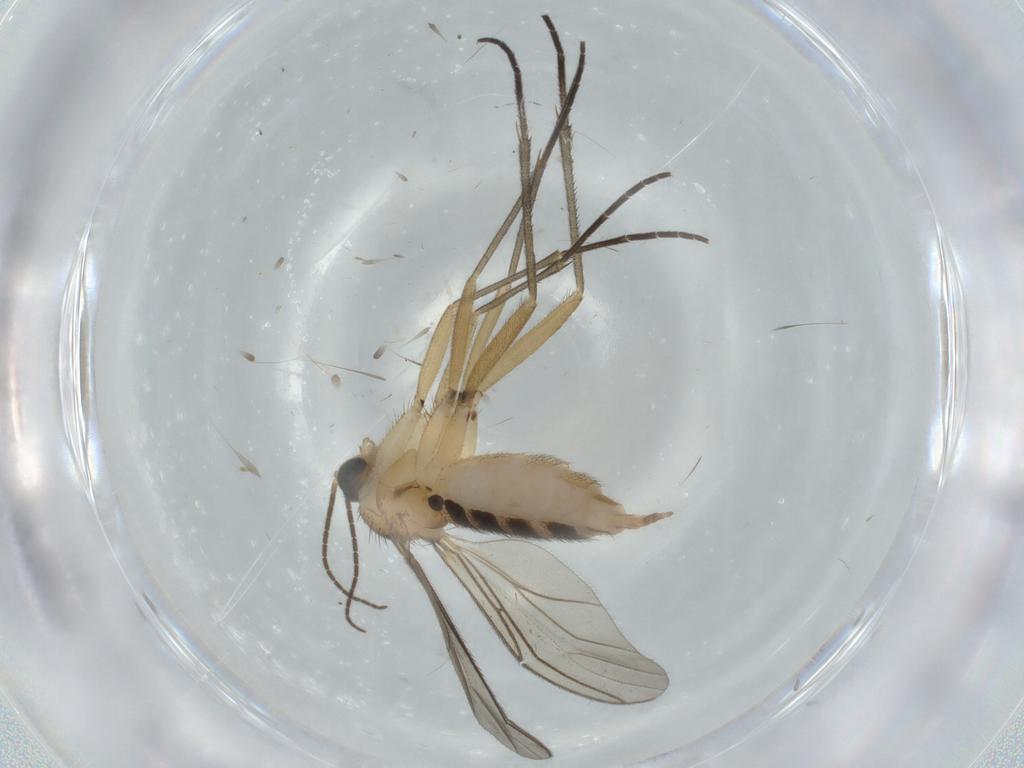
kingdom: Animalia
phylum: Arthropoda
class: Insecta
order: Diptera
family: Sciaridae
